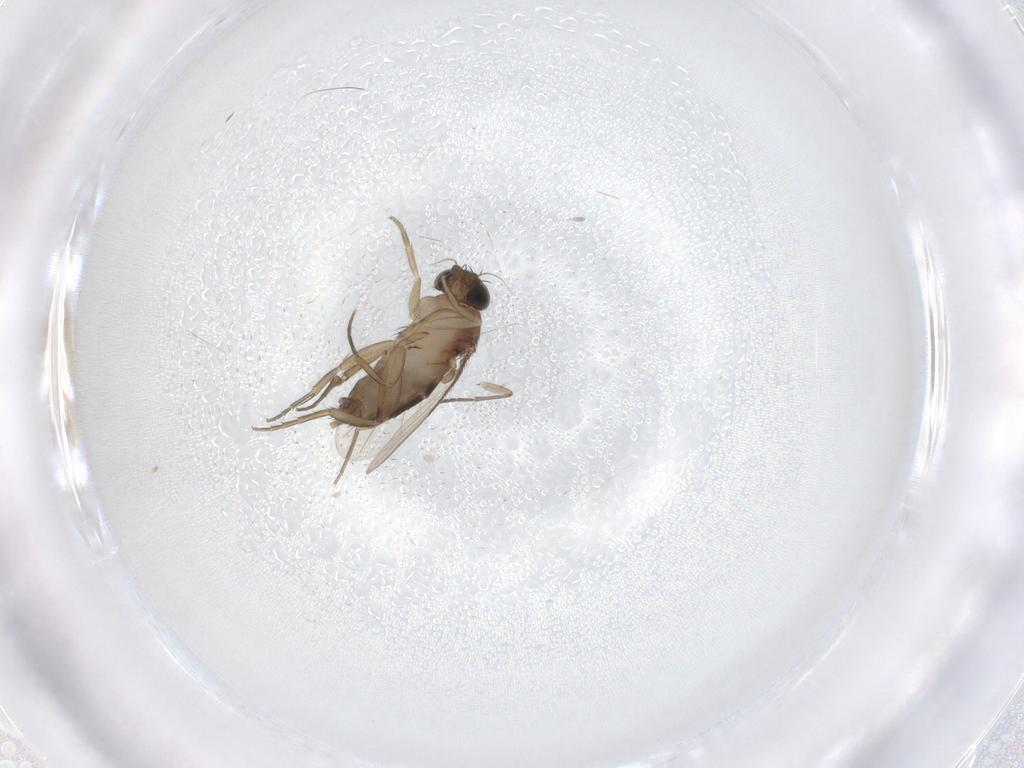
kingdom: Animalia
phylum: Arthropoda
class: Insecta
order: Diptera
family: Phoridae
